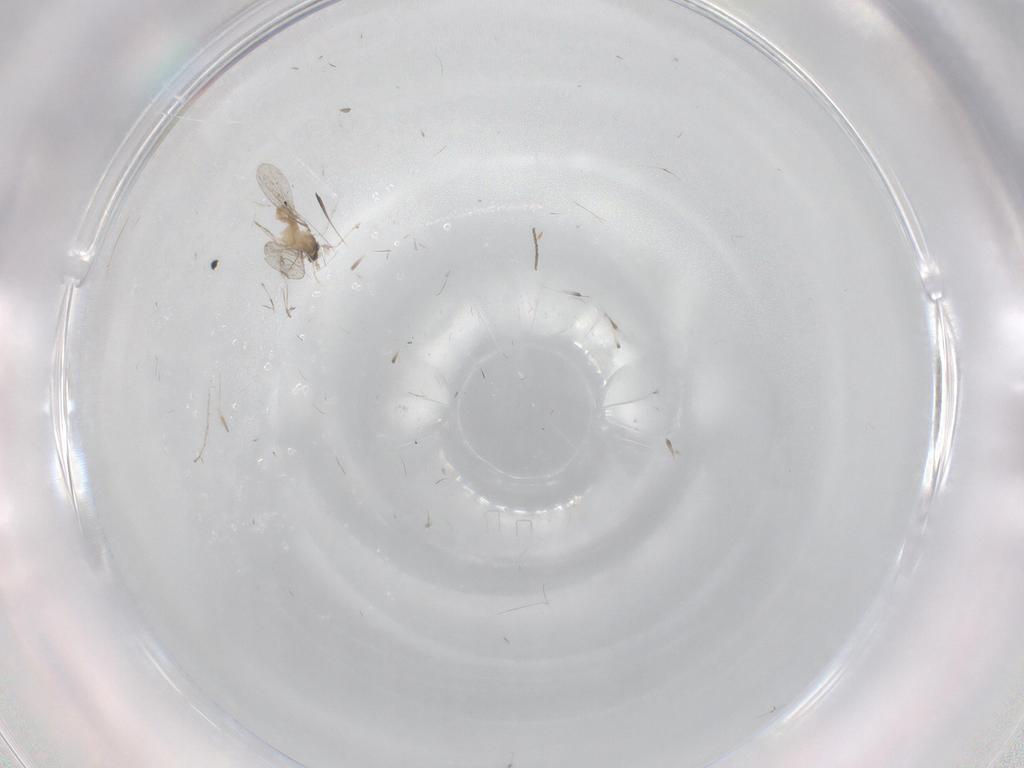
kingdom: Animalia
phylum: Arthropoda
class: Insecta
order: Diptera
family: Cecidomyiidae
